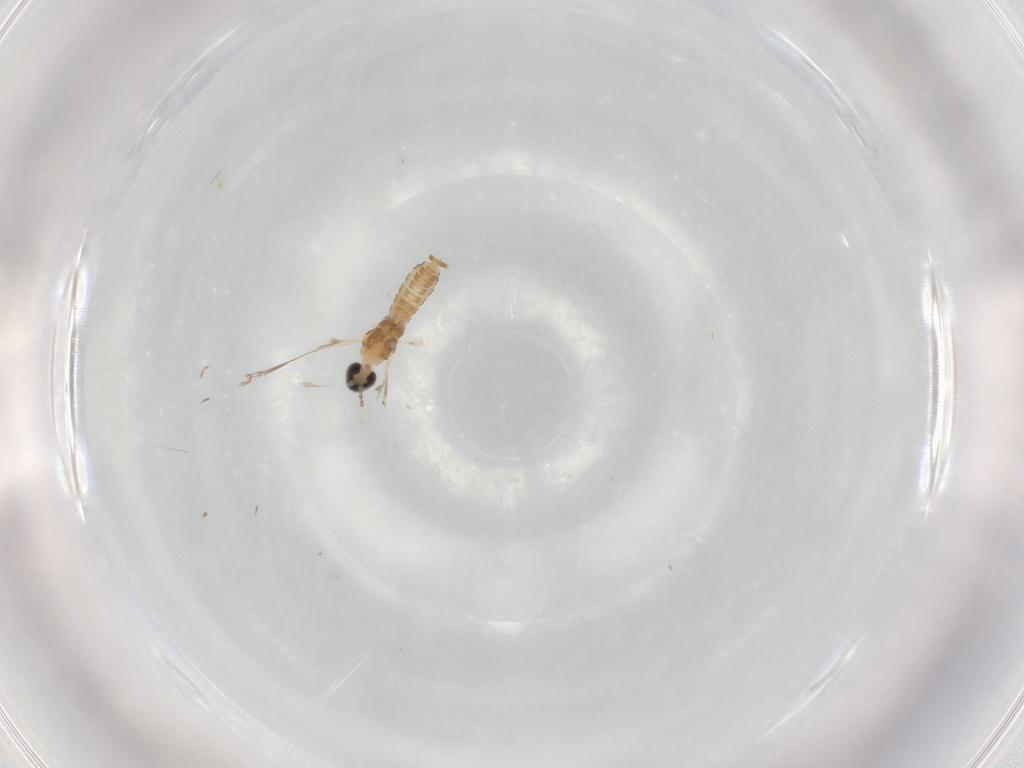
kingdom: Animalia
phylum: Arthropoda
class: Insecta
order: Diptera
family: Psychodidae
